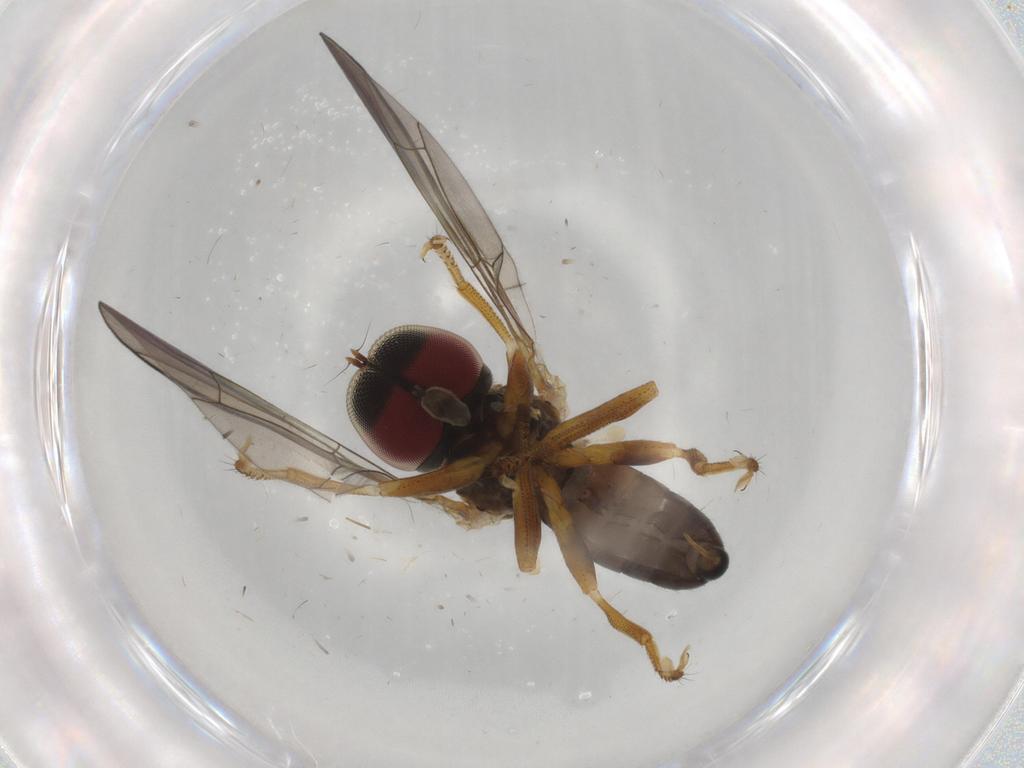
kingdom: Animalia
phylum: Arthropoda
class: Insecta
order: Diptera
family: Pipunculidae
